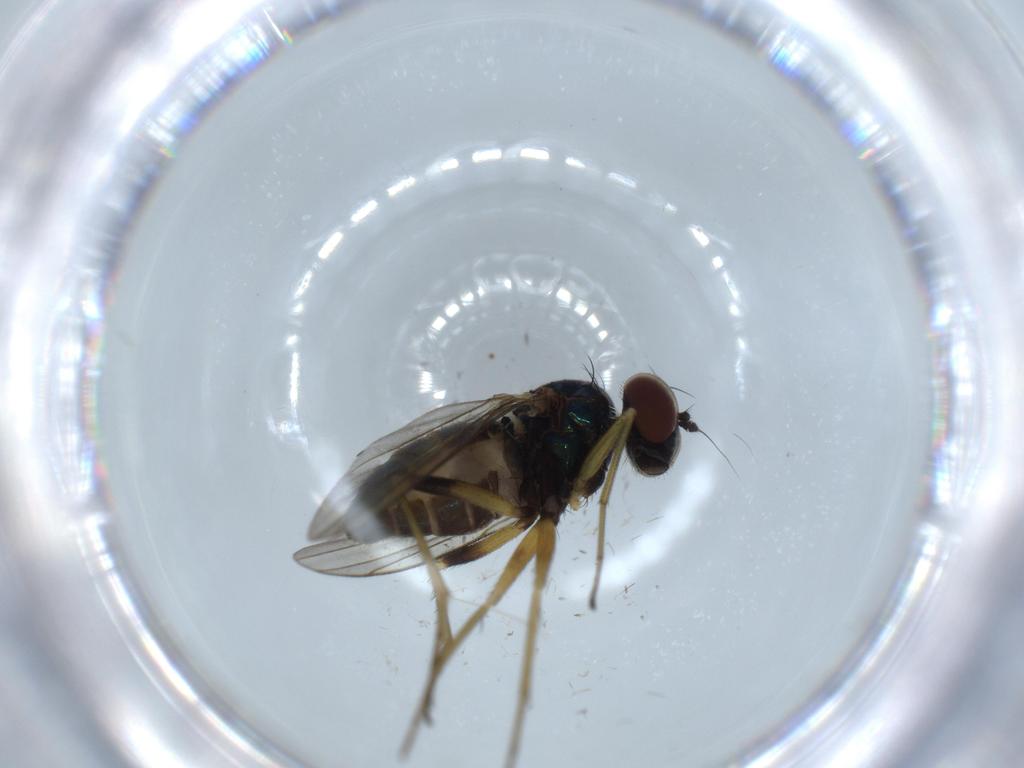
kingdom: Animalia
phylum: Arthropoda
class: Insecta
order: Diptera
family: Dolichopodidae
